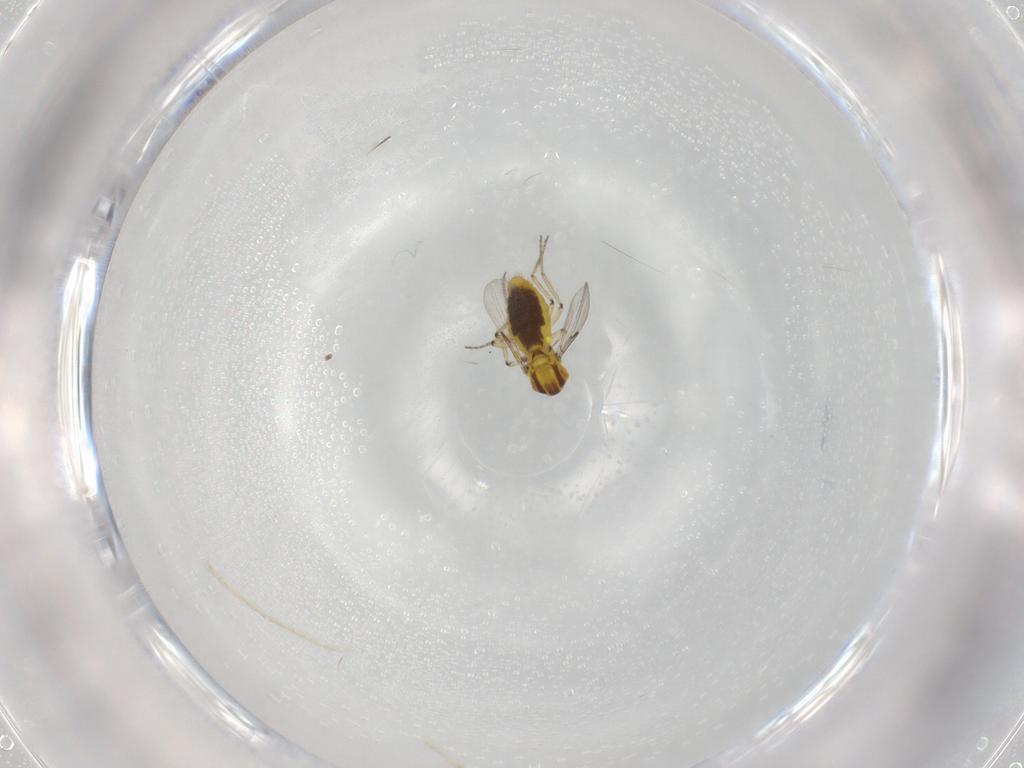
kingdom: Animalia
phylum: Arthropoda
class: Insecta
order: Diptera
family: Ceratopogonidae
